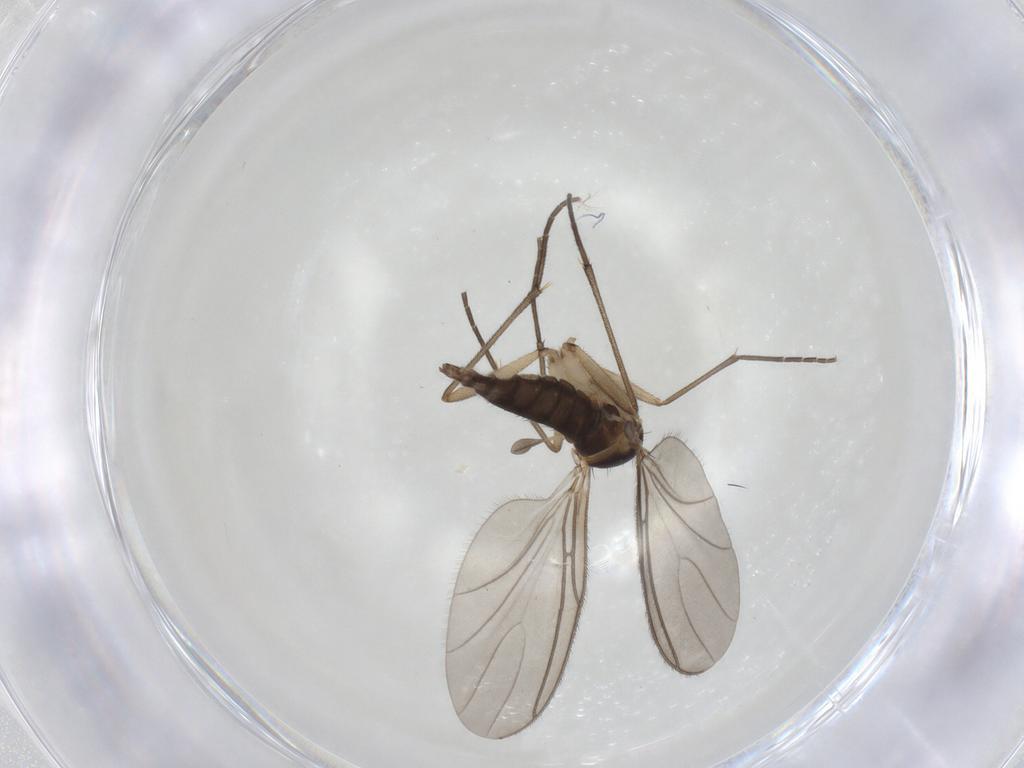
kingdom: Animalia
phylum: Arthropoda
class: Insecta
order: Diptera
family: Sciaridae
